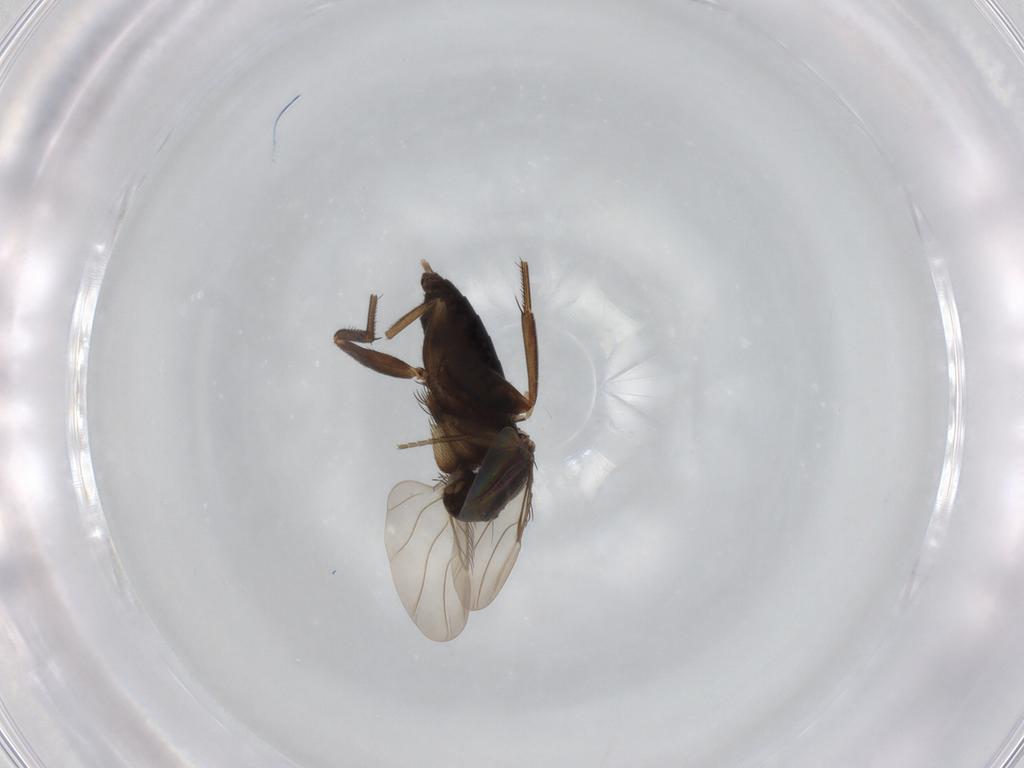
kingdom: Animalia
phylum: Arthropoda
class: Insecta
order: Diptera
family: Phoridae
